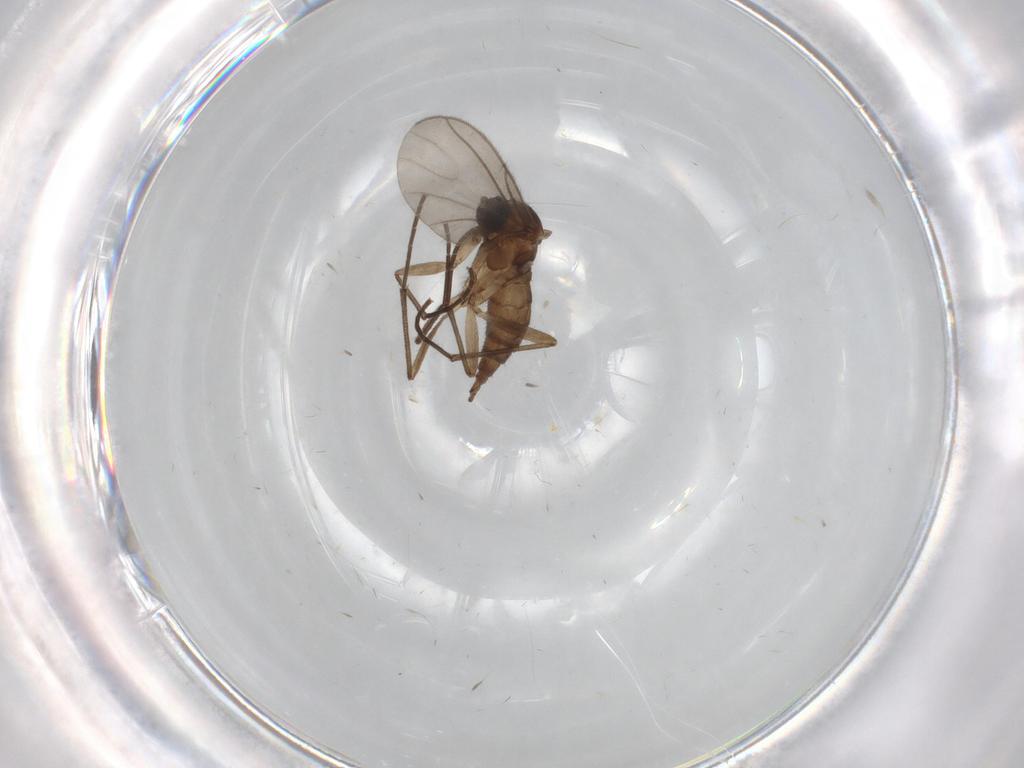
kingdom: Animalia
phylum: Arthropoda
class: Insecta
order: Diptera
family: Sciaridae
